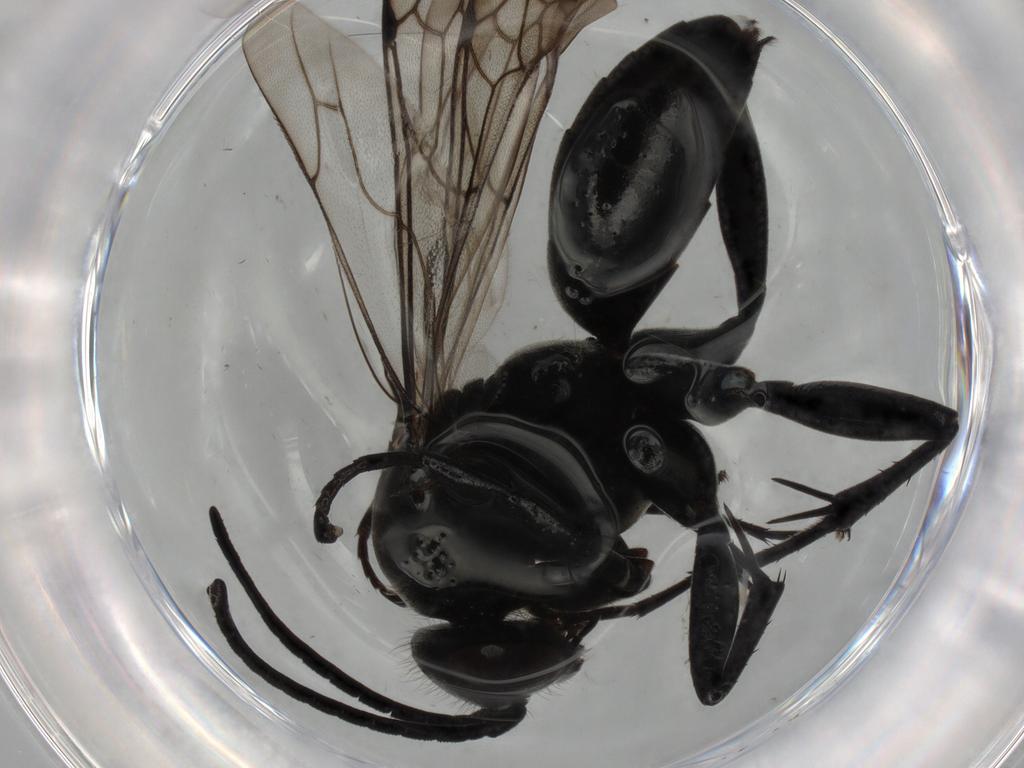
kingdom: Animalia
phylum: Arthropoda
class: Insecta
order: Hymenoptera
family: Pompilidae
